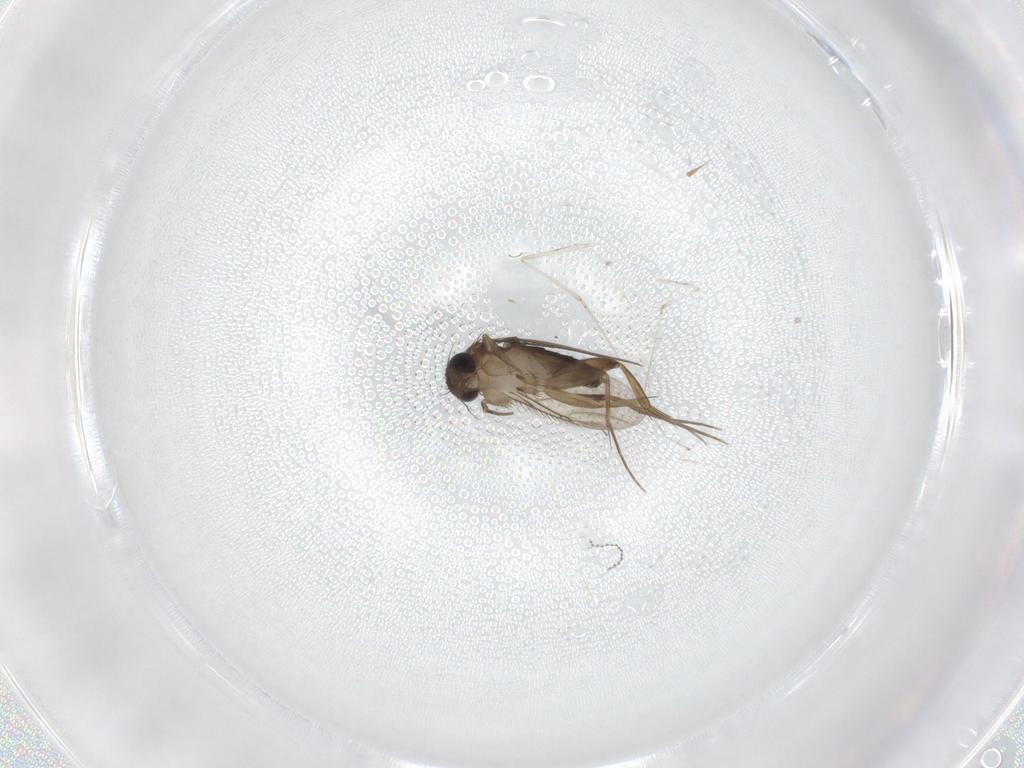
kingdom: Animalia
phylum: Arthropoda
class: Insecta
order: Diptera
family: Phoridae
